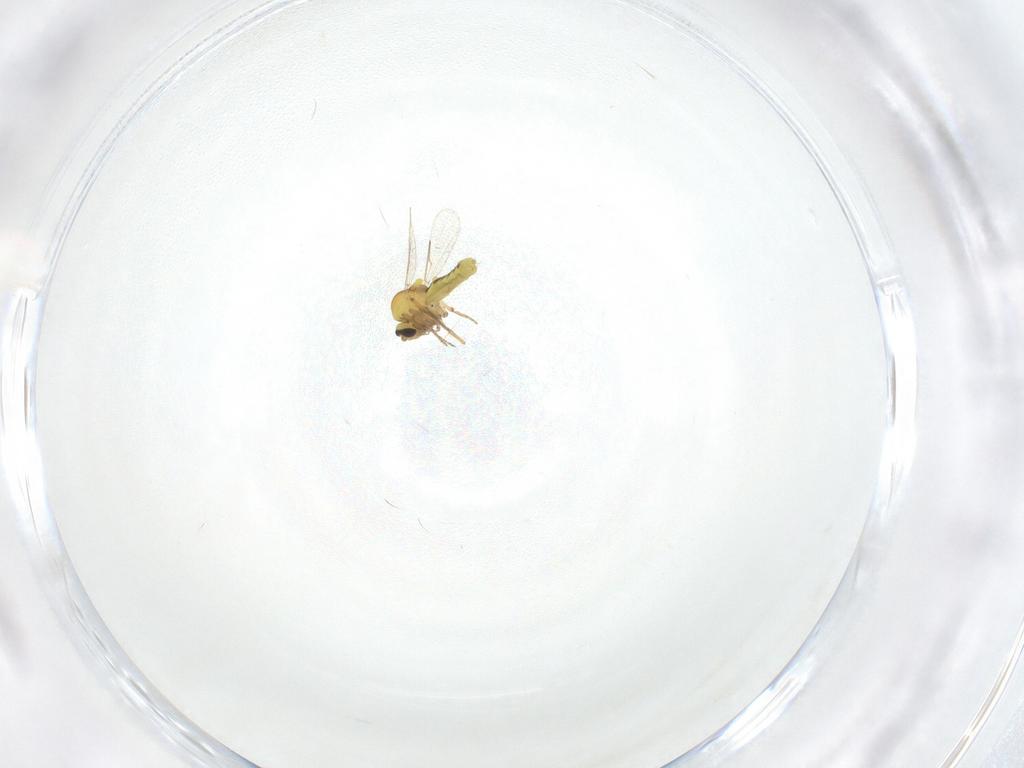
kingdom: Animalia
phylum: Arthropoda
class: Insecta
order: Diptera
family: Ceratopogonidae
